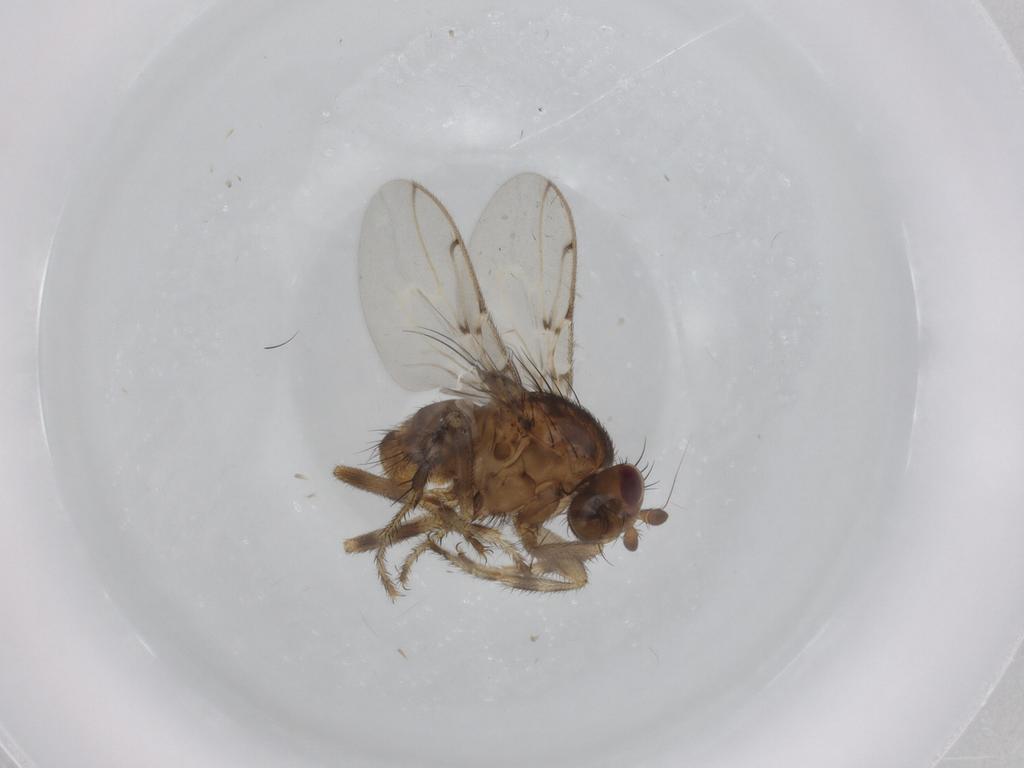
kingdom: Animalia
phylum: Arthropoda
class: Insecta
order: Diptera
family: Sphaeroceridae
